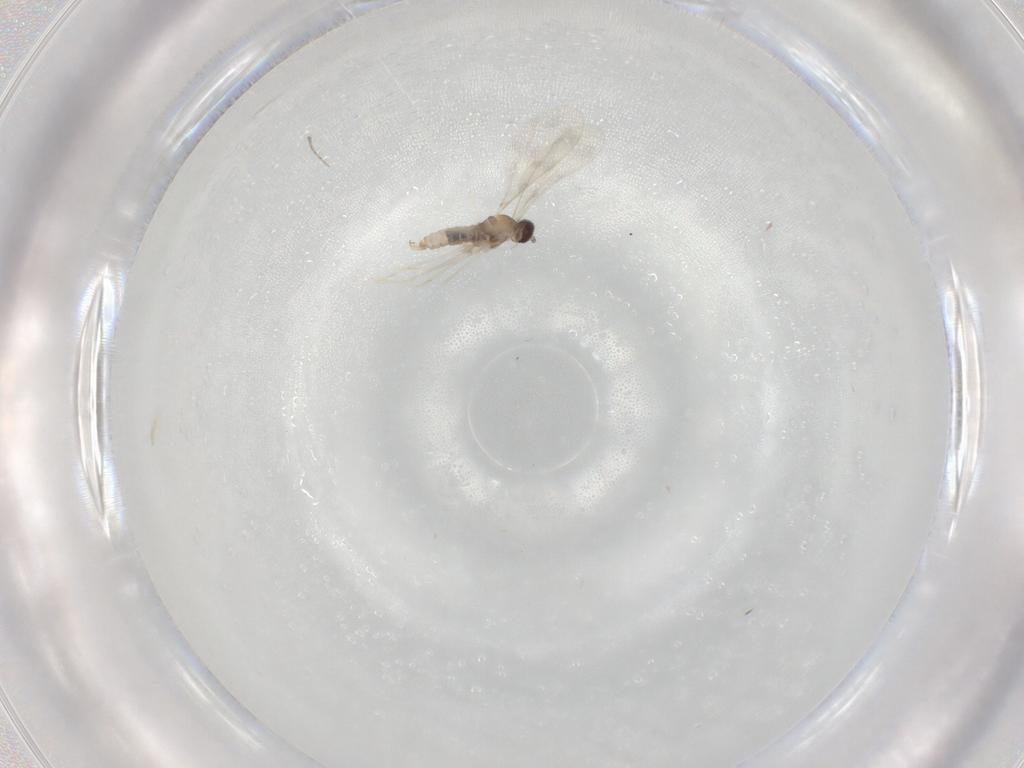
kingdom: Animalia
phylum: Arthropoda
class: Insecta
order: Diptera
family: Cecidomyiidae
